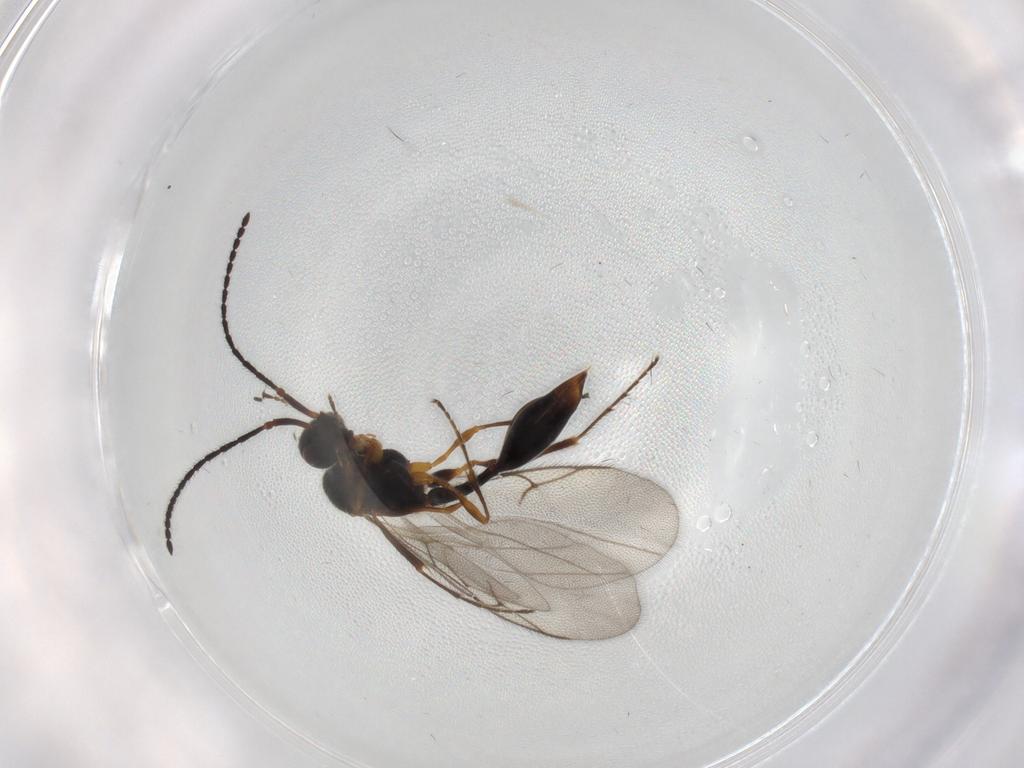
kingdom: Animalia
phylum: Arthropoda
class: Insecta
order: Hymenoptera
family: Diapriidae
